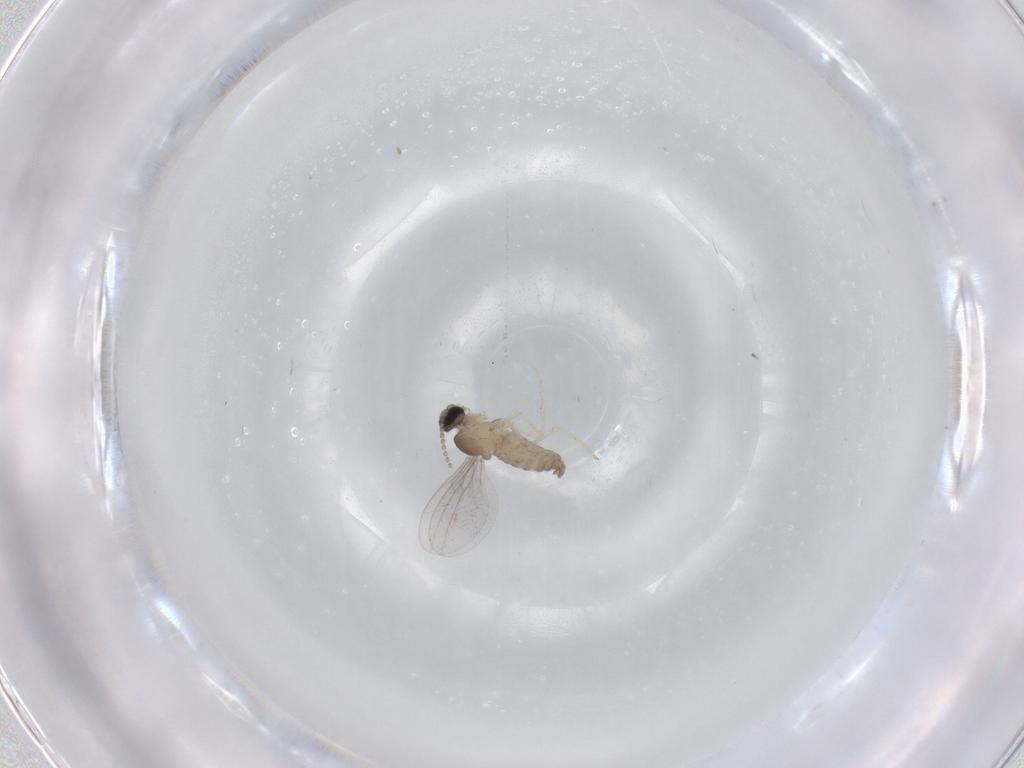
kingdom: Animalia
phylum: Arthropoda
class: Insecta
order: Diptera
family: Cecidomyiidae
